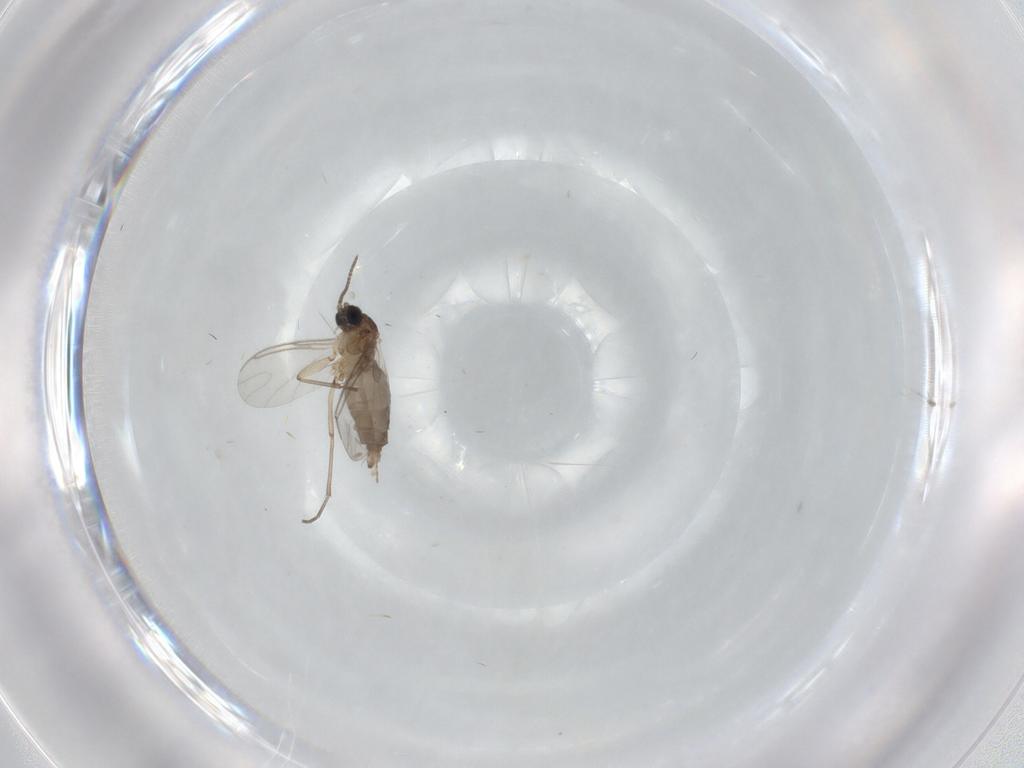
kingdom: Animalia
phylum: Arthropoda
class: Insecta
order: Diptera
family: Sciaridae
